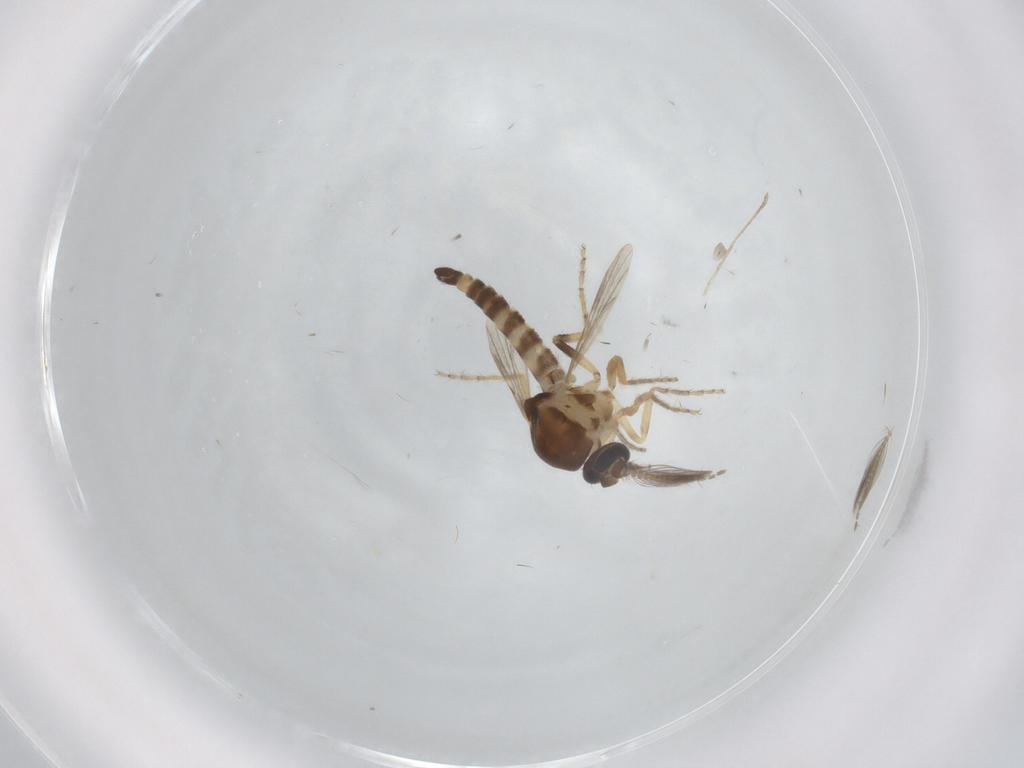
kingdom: Animalia
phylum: Arthropoda
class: Insecta
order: Diptera
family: Ceratopogonidae
